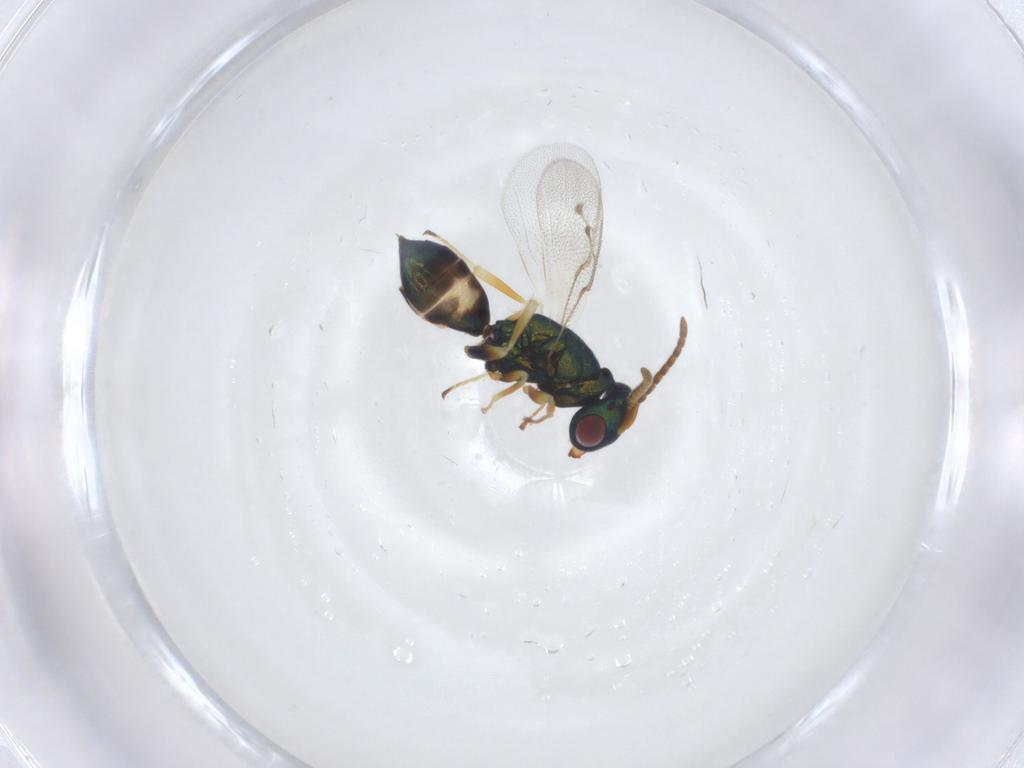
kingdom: Animalia
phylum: Arthropoda
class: Insecta
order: Hymenoptera
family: Pteromalidae
